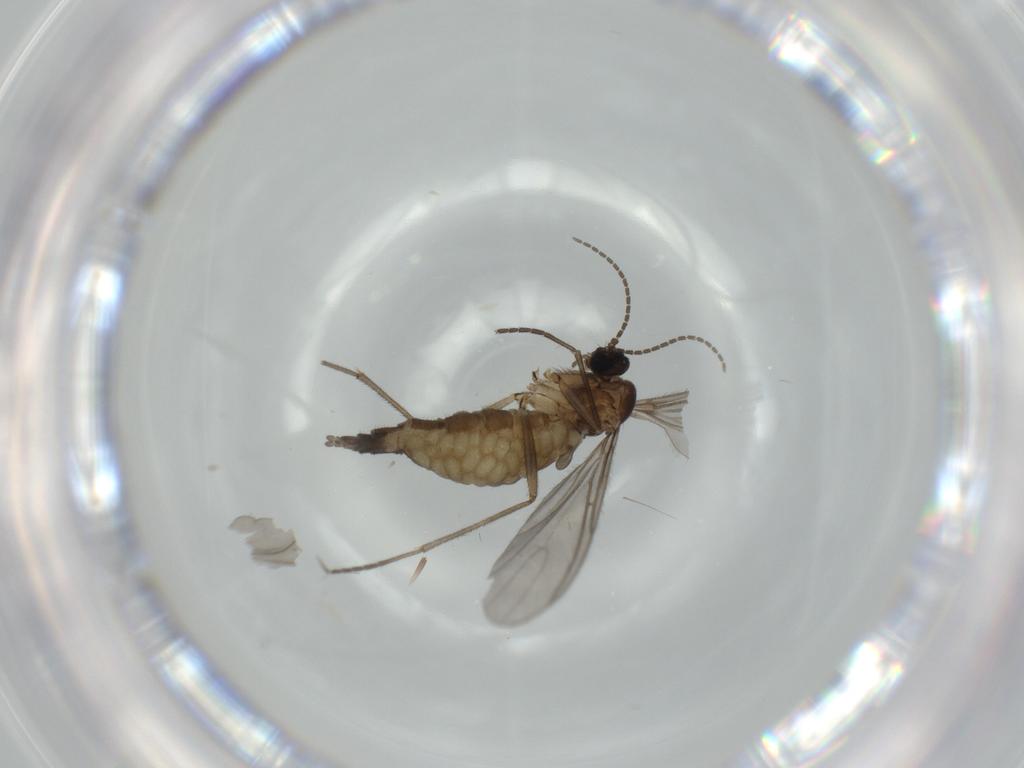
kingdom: Animalia
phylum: Arthropoda
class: Insecta
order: Diptera
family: Sciaridae
